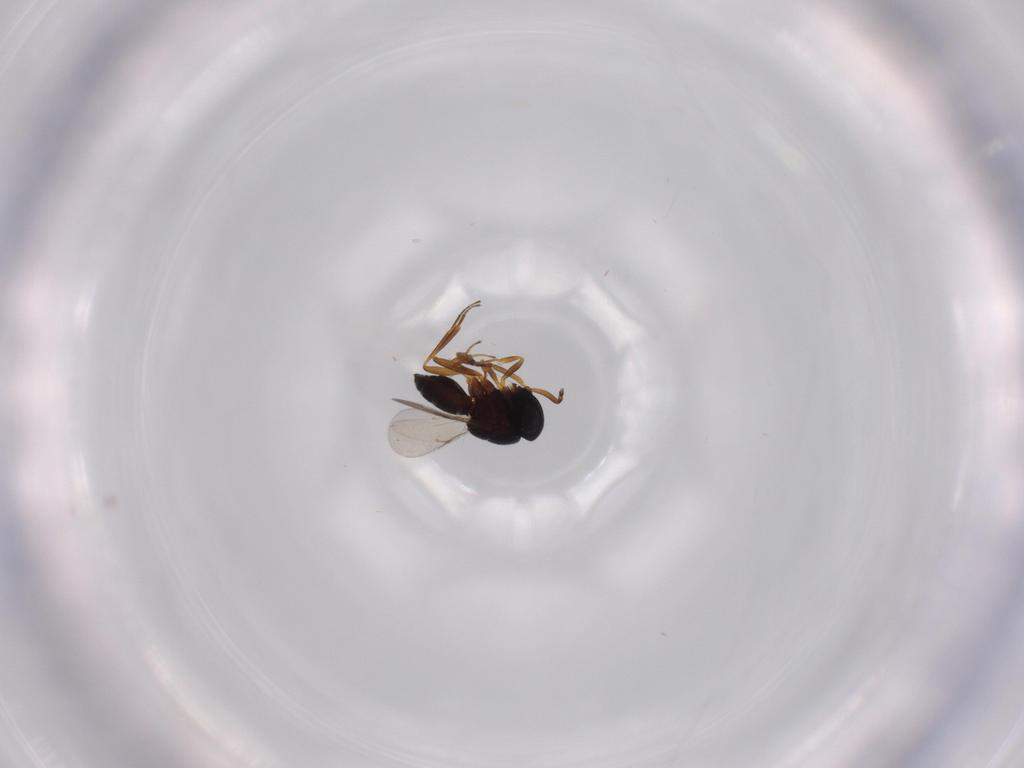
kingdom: Animalia
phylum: Arthropoda
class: Insecta
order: Hymenoptera
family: Scelionidae
